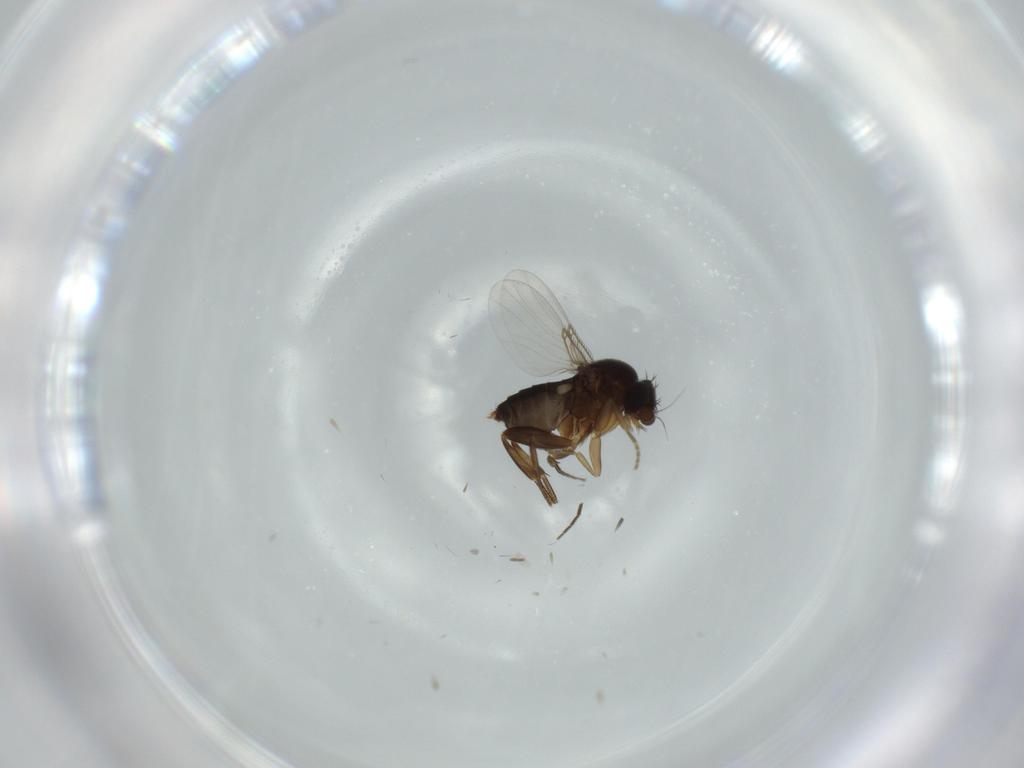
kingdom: Animalia
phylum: Arthropoda
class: Insecta
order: Diptera
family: Phoridae
